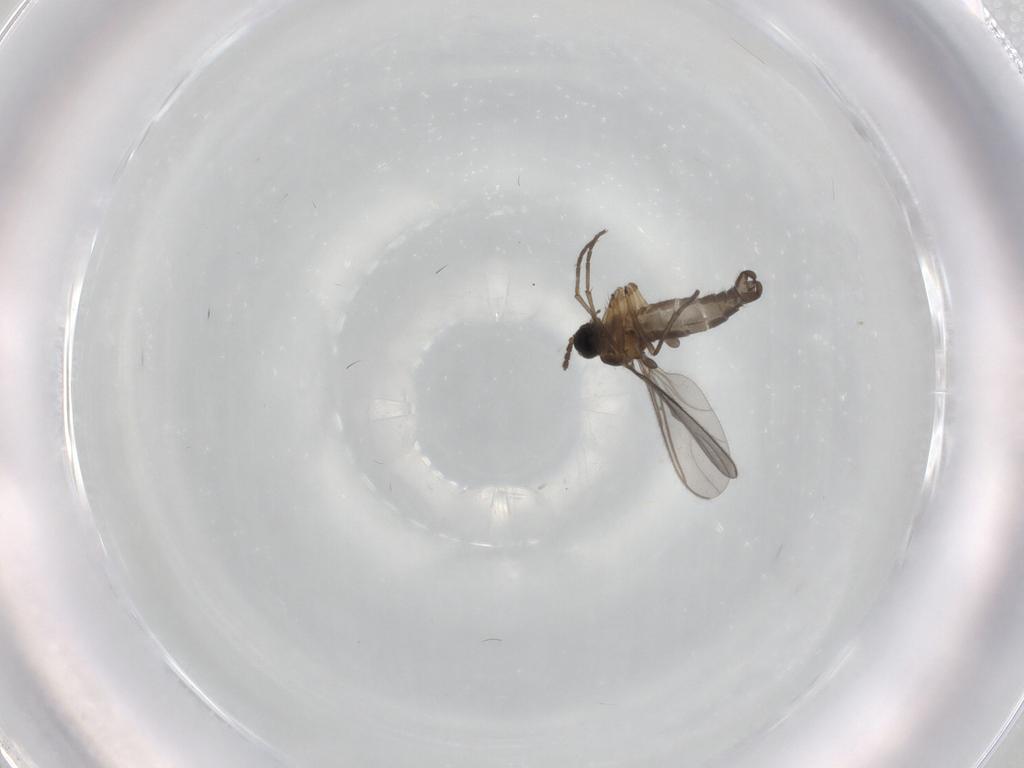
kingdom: Animalia
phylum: Arthropoda
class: Insecta
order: Diptera
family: Sciaridae
